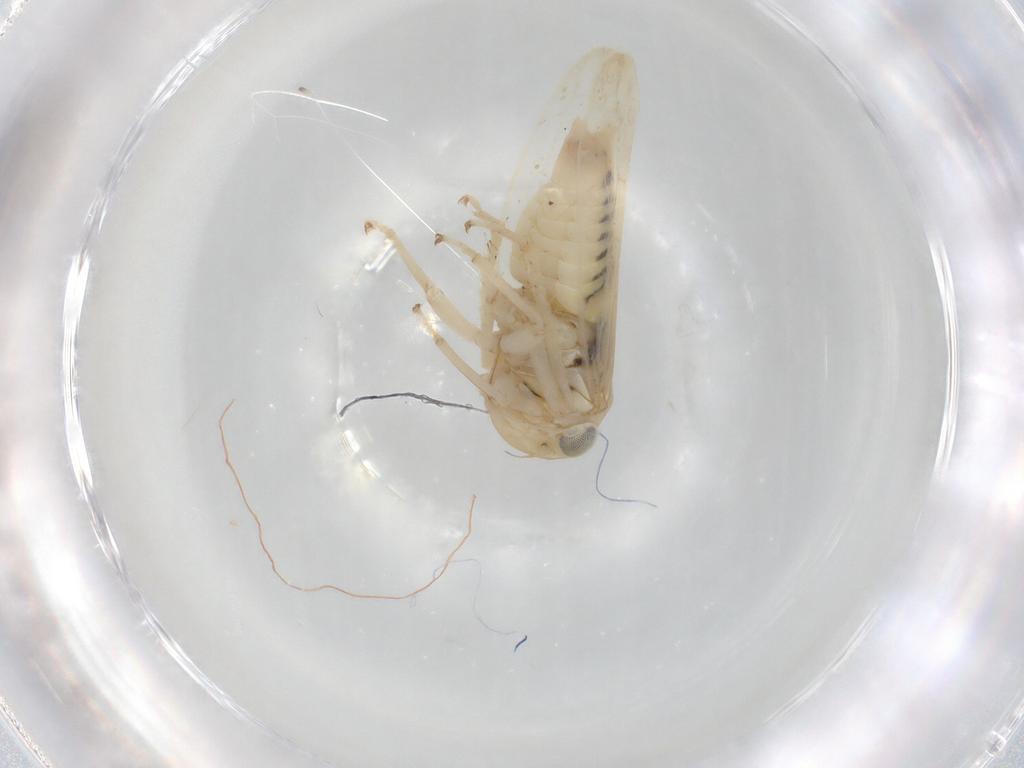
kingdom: Animalia
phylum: Arthropoda
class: Insecta
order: Hemiptera
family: Cicadellidae
